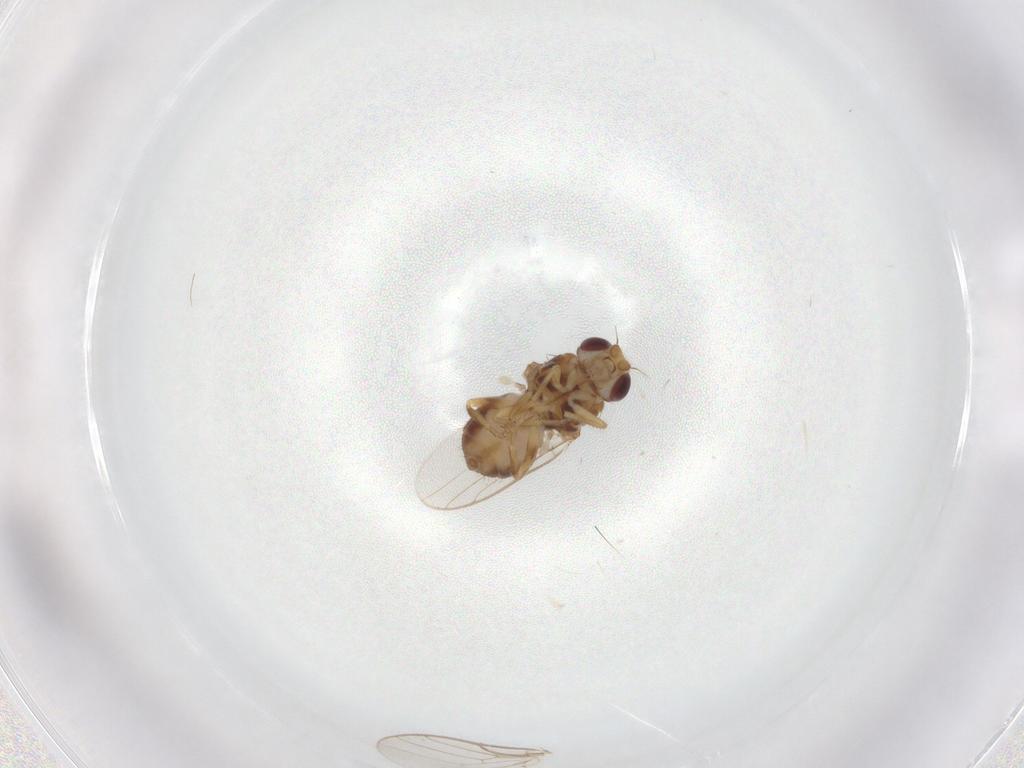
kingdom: Animalia
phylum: Arthropoda
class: Insecta
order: Diptera
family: Chloropidae
